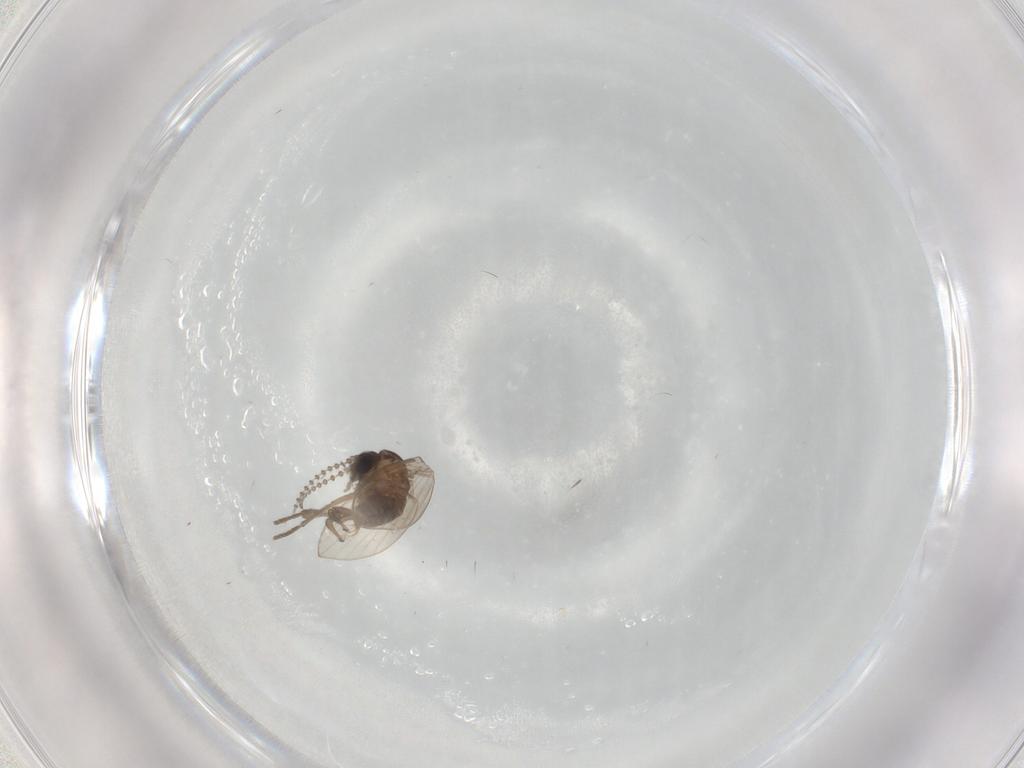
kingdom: Animalia
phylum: Arthropoda
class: Insecta
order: Diptera
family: Psychodidae
